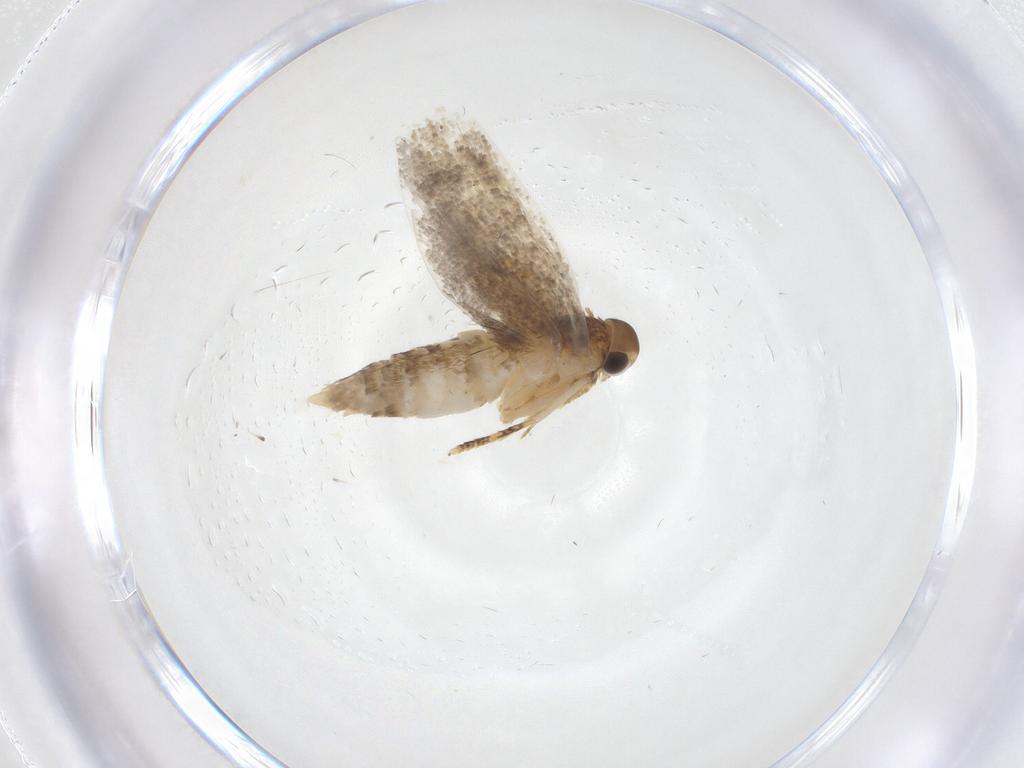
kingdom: Animalia
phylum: Arthropoda
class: Insecta
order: Lepidoptera
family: Oecophoridae
